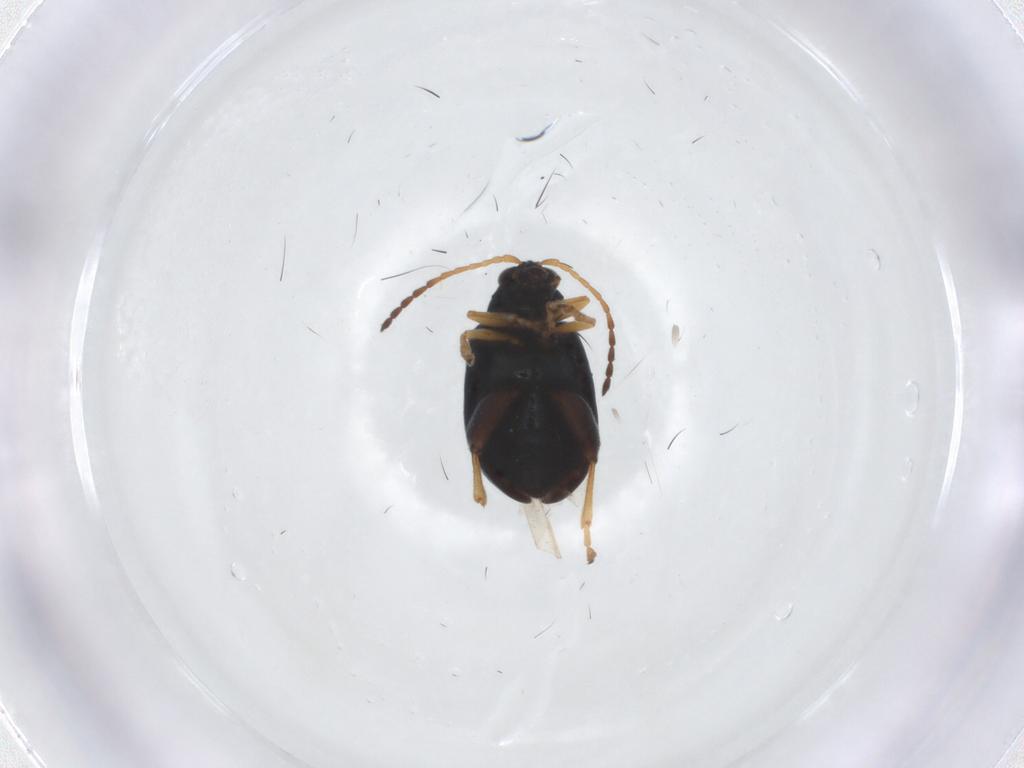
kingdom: Animalia
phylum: Arthropoda
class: Insecta
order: Coleoptera
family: Chrysomelidae
